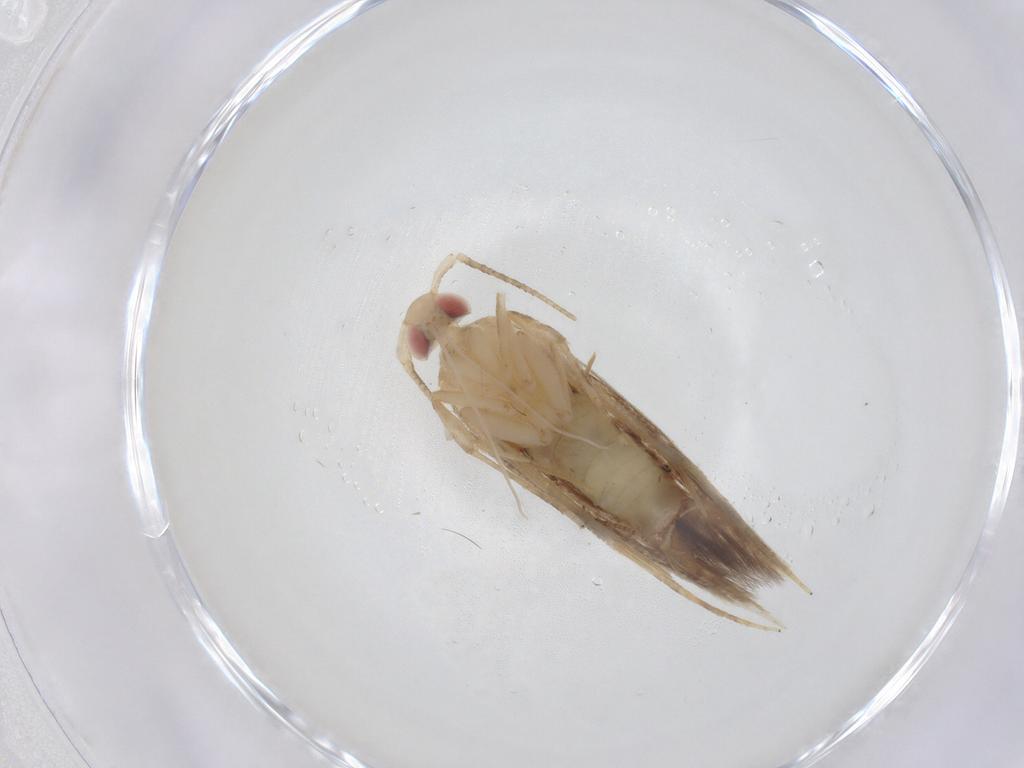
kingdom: Animalia
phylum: Arthropoda
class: Insecta
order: Lepidoptera
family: Cosmopterigidae
